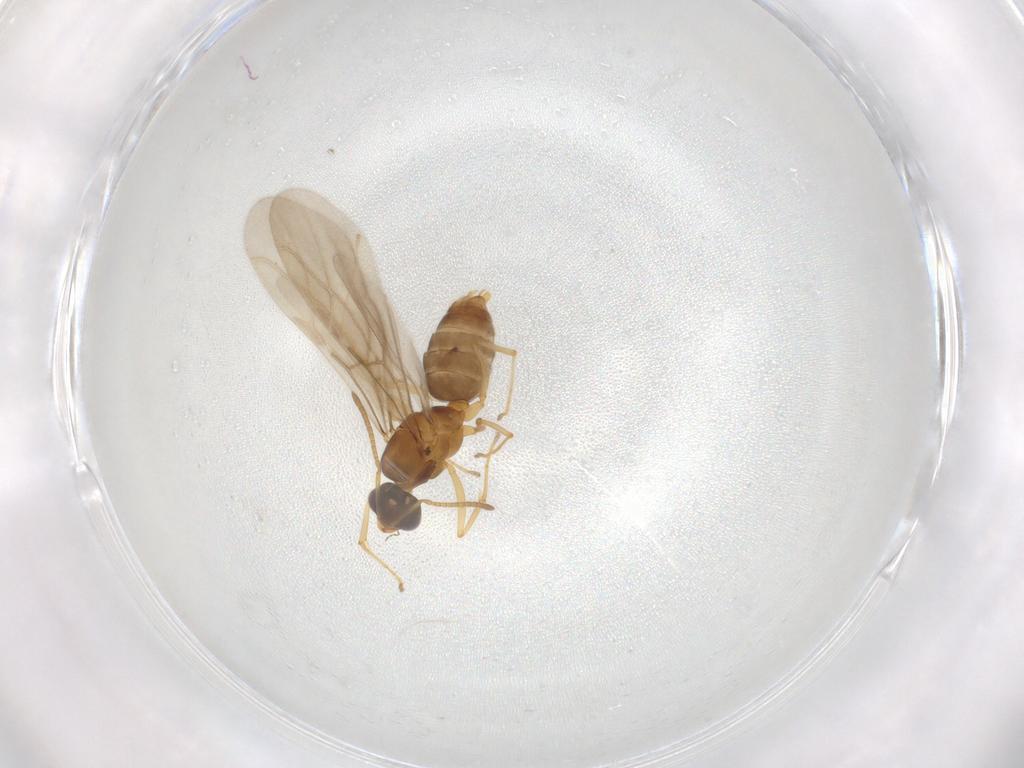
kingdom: Animalia
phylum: Arthropoda
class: Insecta
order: Hymenoptera
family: Formicidae
